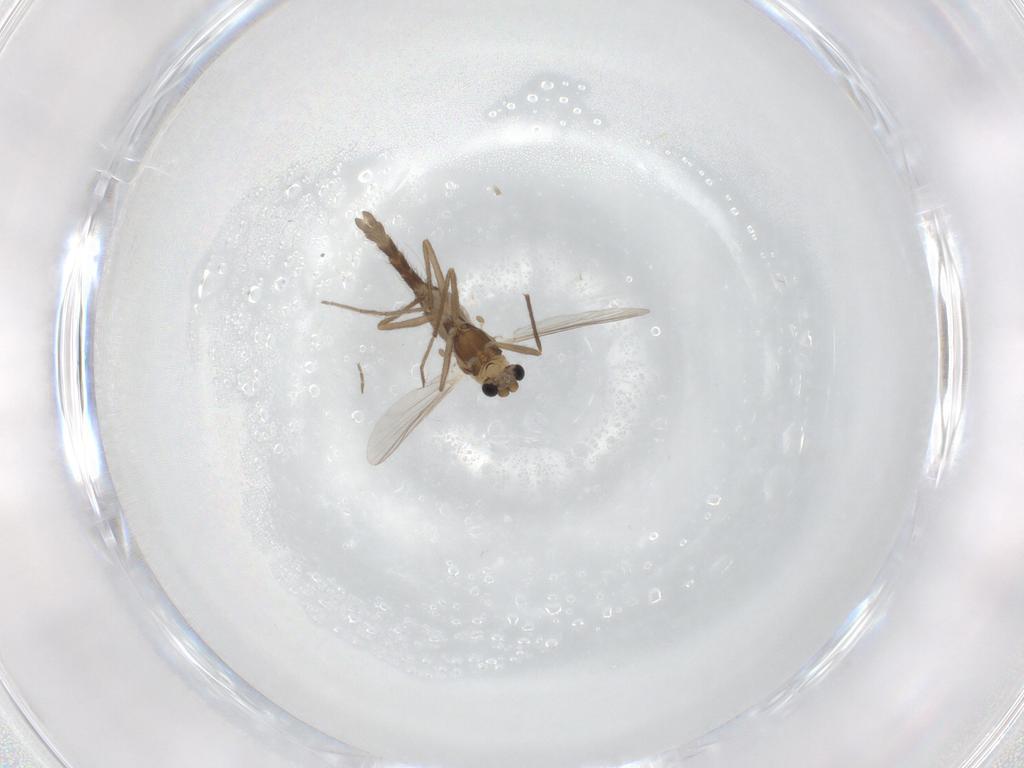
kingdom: Animalia
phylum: Arthropoda
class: Insecta
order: Diptera
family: Chironomidae
